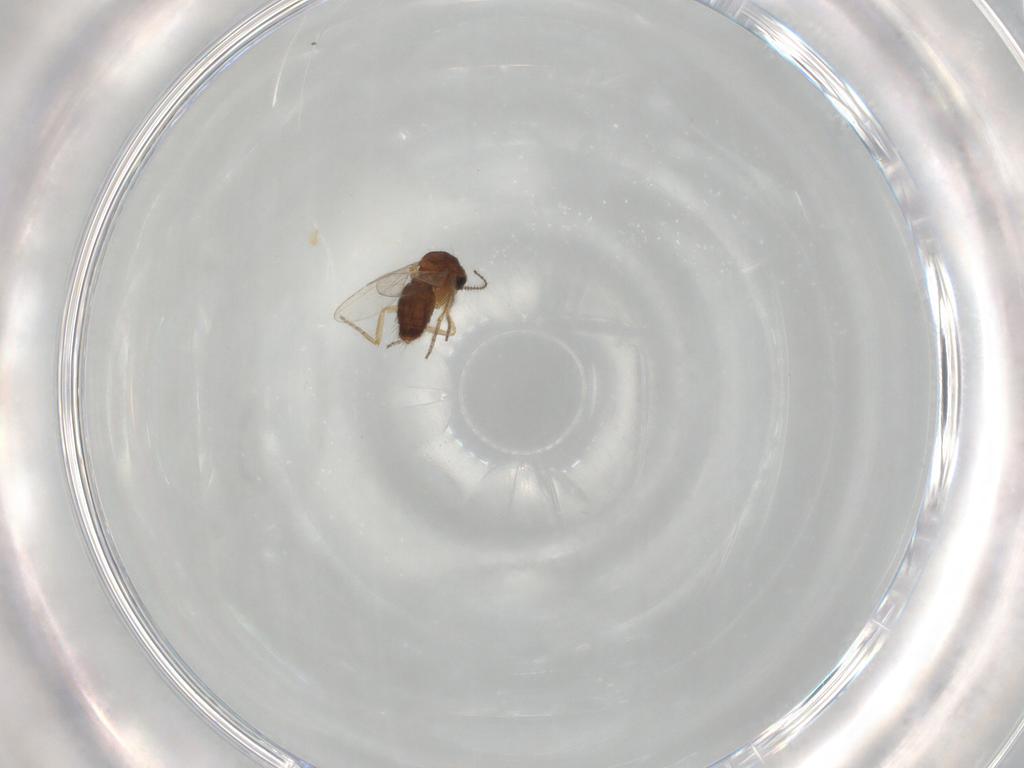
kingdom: Animalia
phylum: Arthropoda
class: Insecta
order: Diptera
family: Ceratopogonidae
